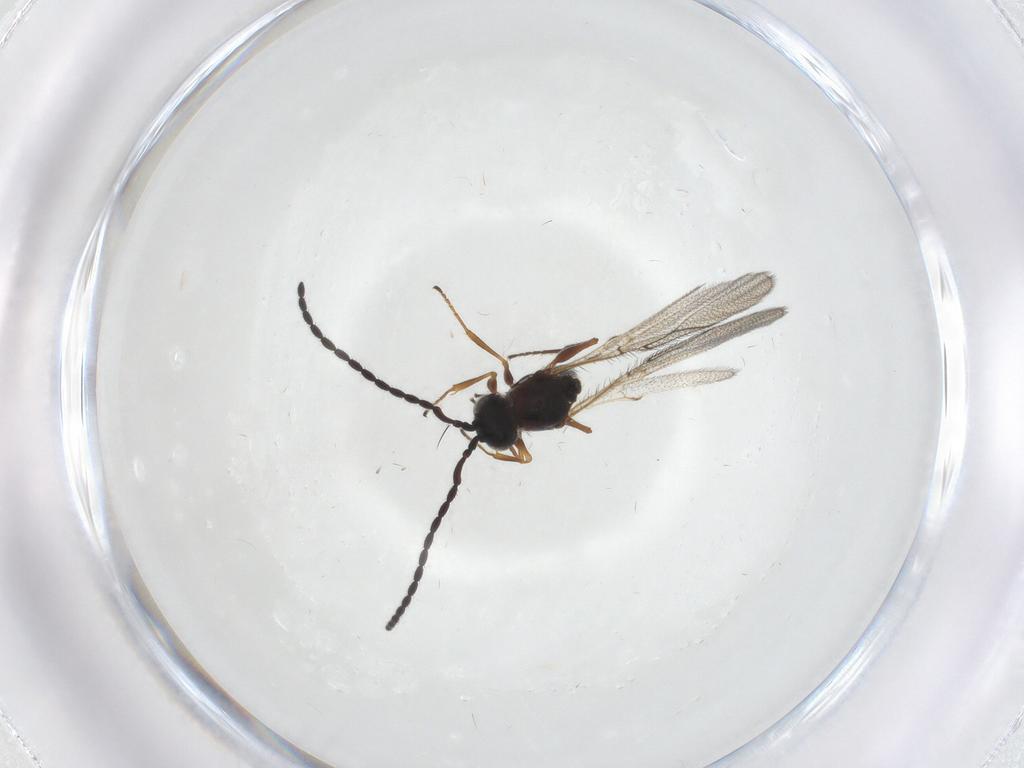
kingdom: Animalia
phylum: Arthropoda
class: Insecta
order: Hymenoptera
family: Figitidae
